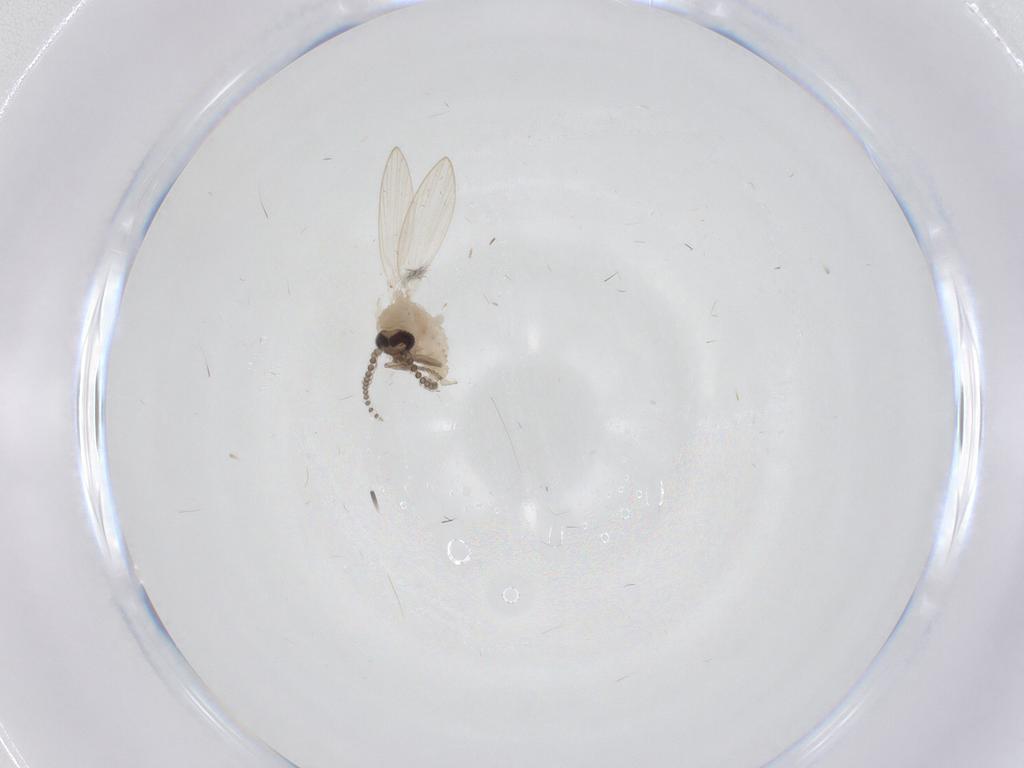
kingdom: Animalia
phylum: Arthropoda
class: Insecta
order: Diptera
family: Psychodidae
